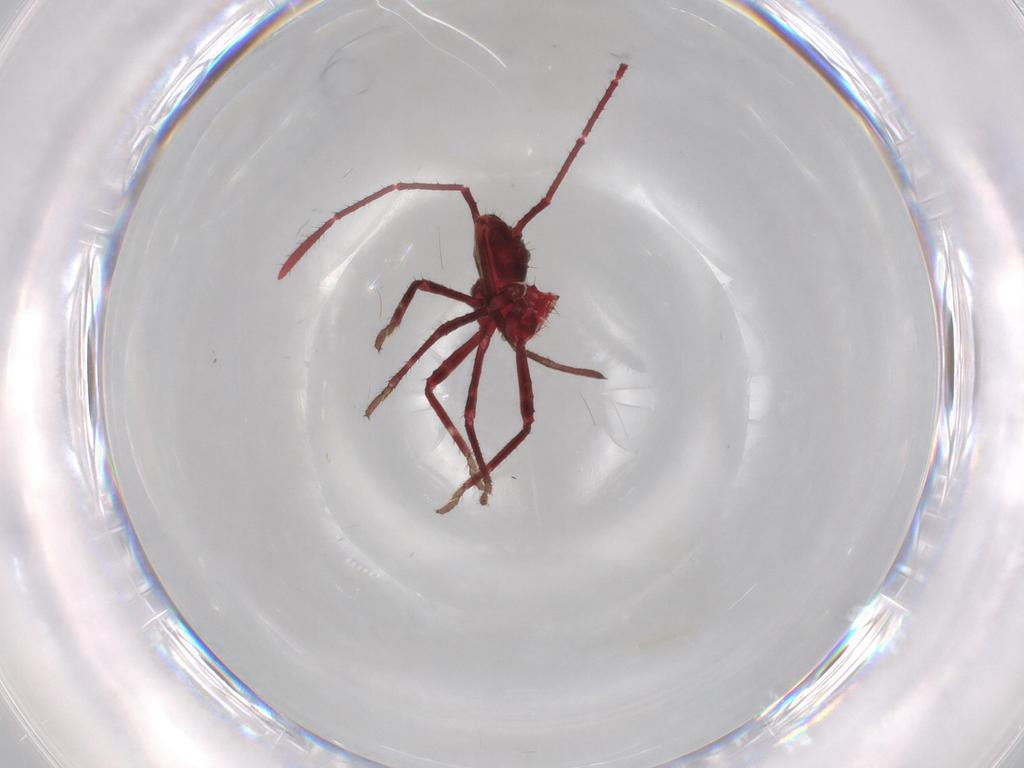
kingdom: Animalia
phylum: Arthropoda
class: Insecta
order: Hemiptera
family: Coreidae
